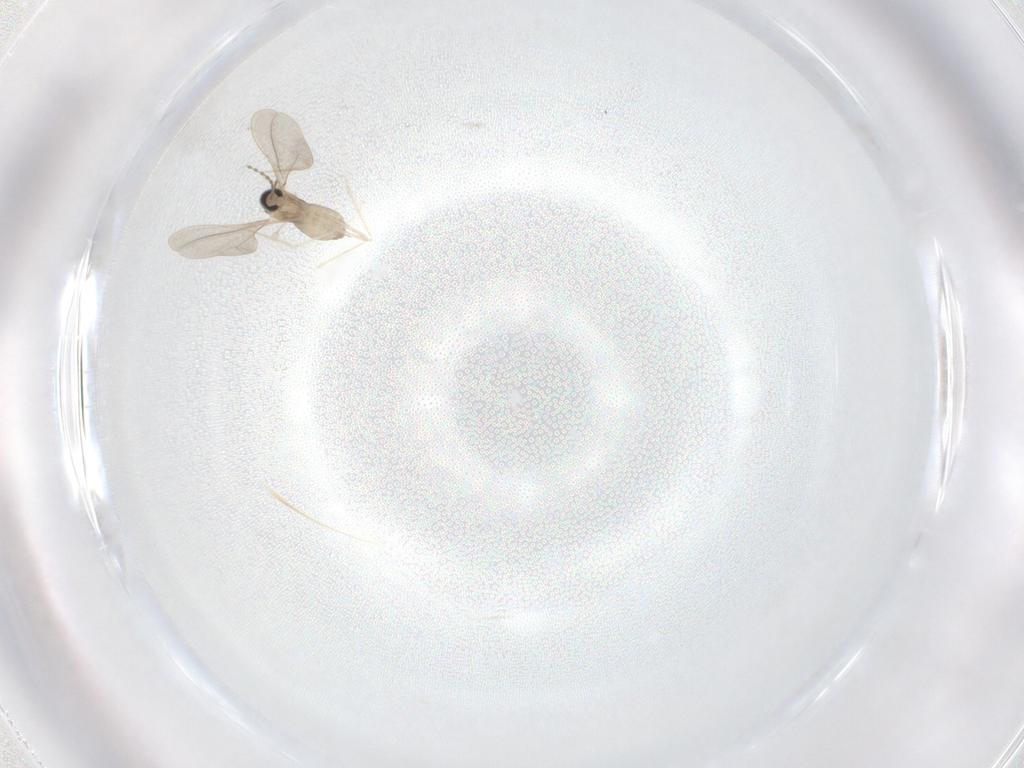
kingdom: Animalia
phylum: Arthropoda
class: Insecta
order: Diptera
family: Cecidomyiidae
